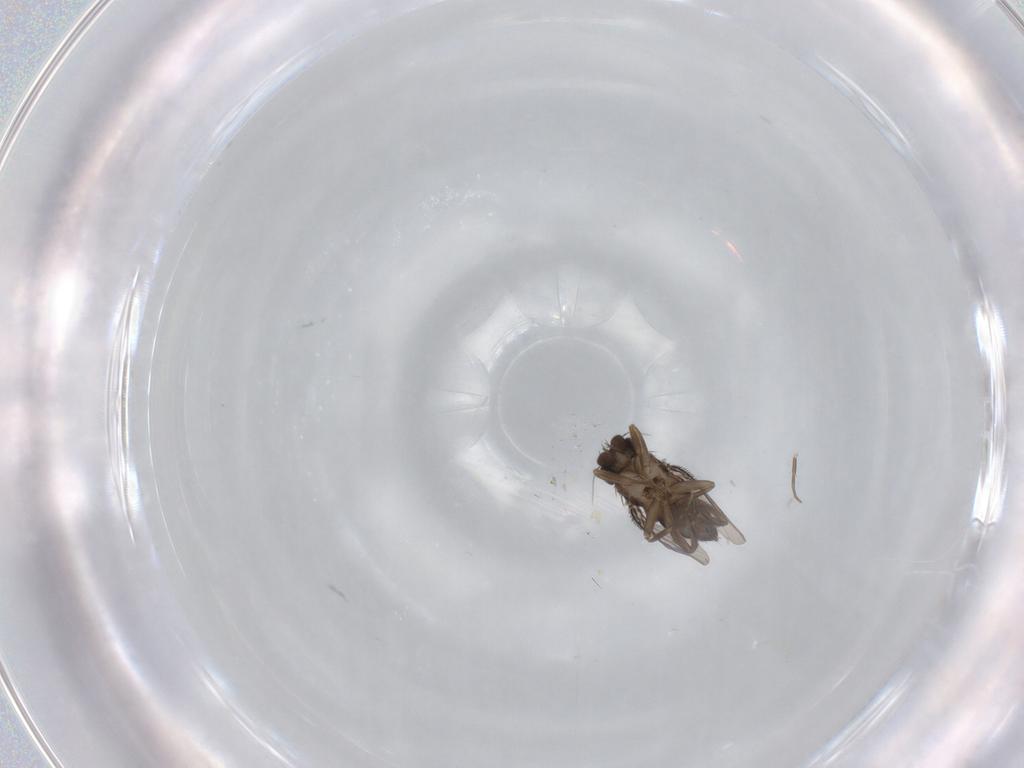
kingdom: Animalia
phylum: Arthropoda
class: Insecta
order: Diptera
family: Phoridae
